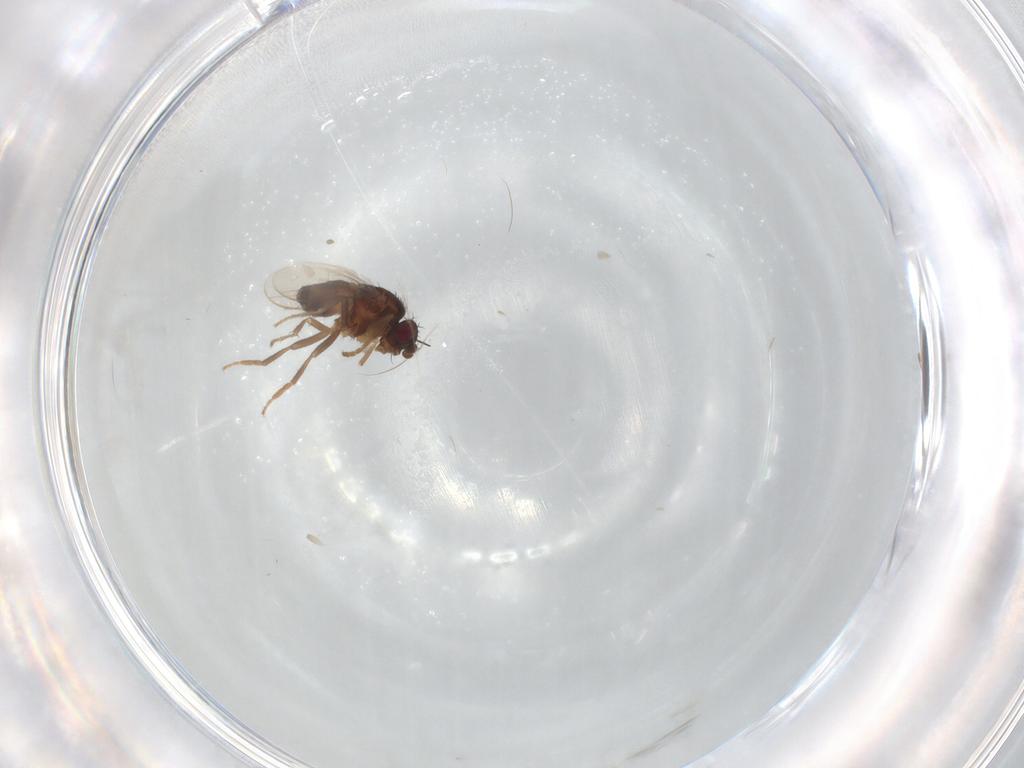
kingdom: Animalia
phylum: Arthropoda
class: Insecta
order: Diptera
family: Sphaeroceridae
